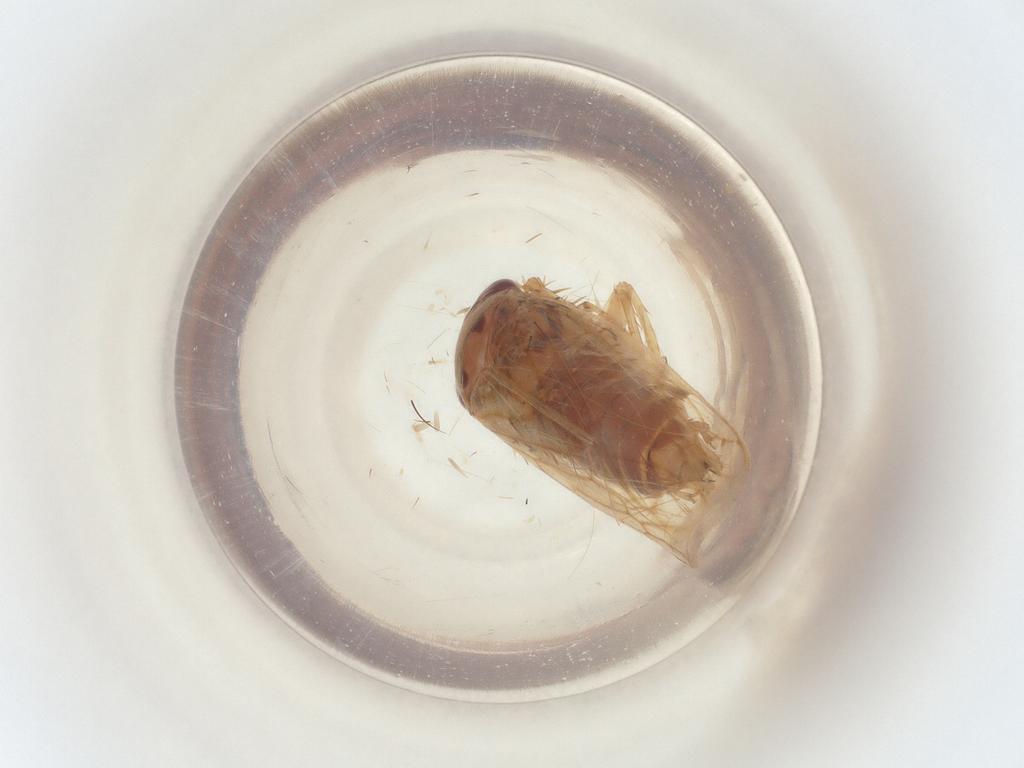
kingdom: Animalia
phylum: Arthropoda
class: Insecta
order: Hemiptera
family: Cicadellidae
